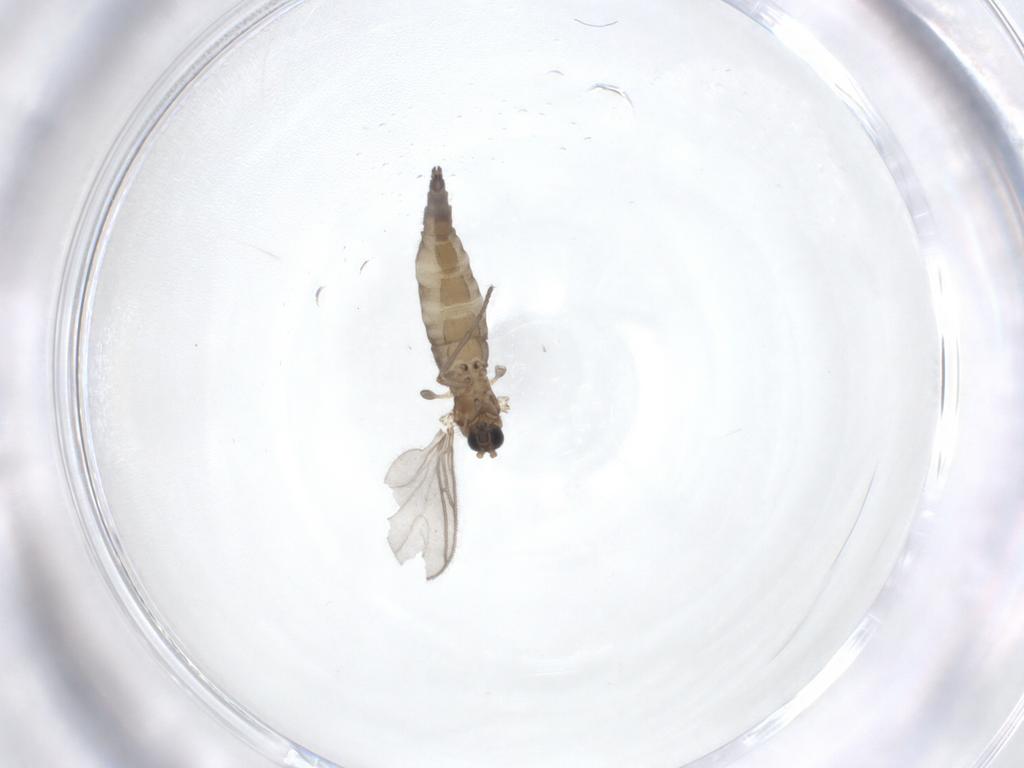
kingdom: Animalia
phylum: Arthropoda
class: Insecta
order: Diptera
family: Sciaridae
